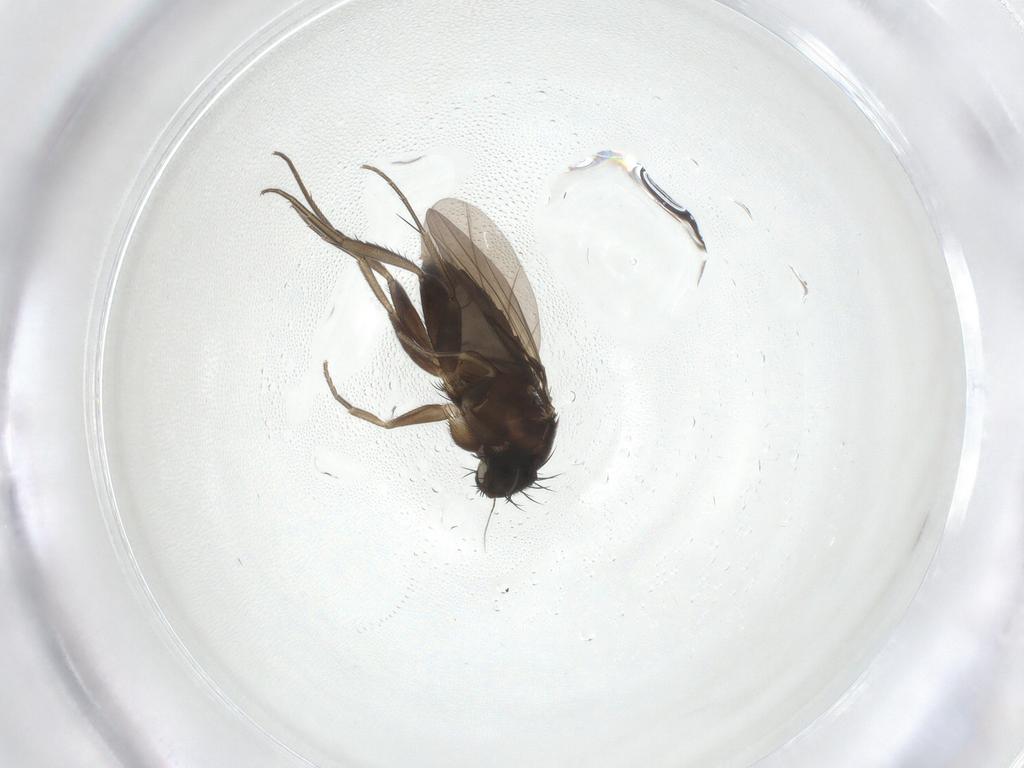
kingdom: Animalia
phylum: Arthropoda
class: Insecta
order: Diptera
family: Phoridae
